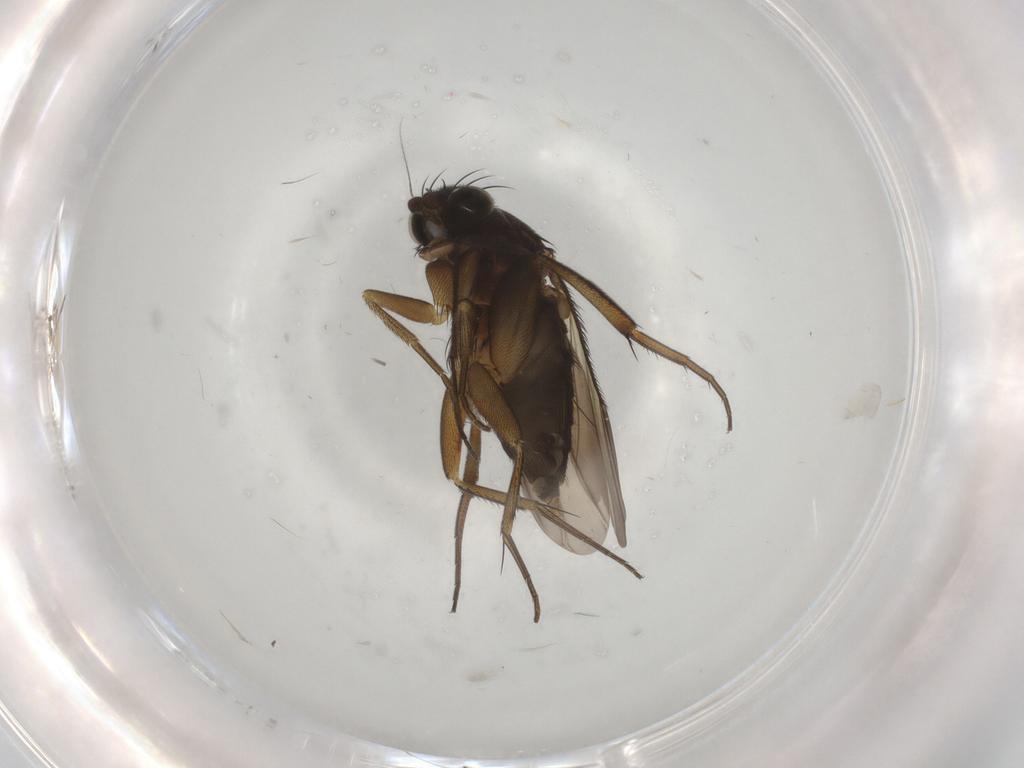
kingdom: Animalia
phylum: Arthropoda
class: Insecta
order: Diptera
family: Phoridae
